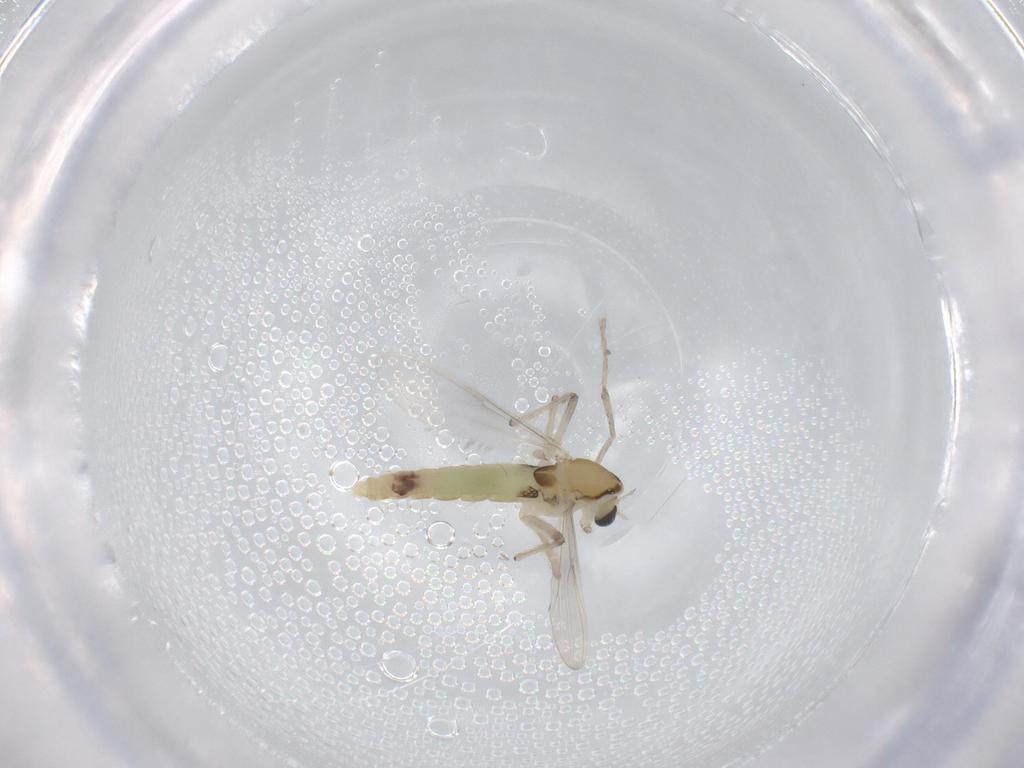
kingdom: Animalia
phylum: Arthropoda
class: Insecta
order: Diptera
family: Chironomidae
